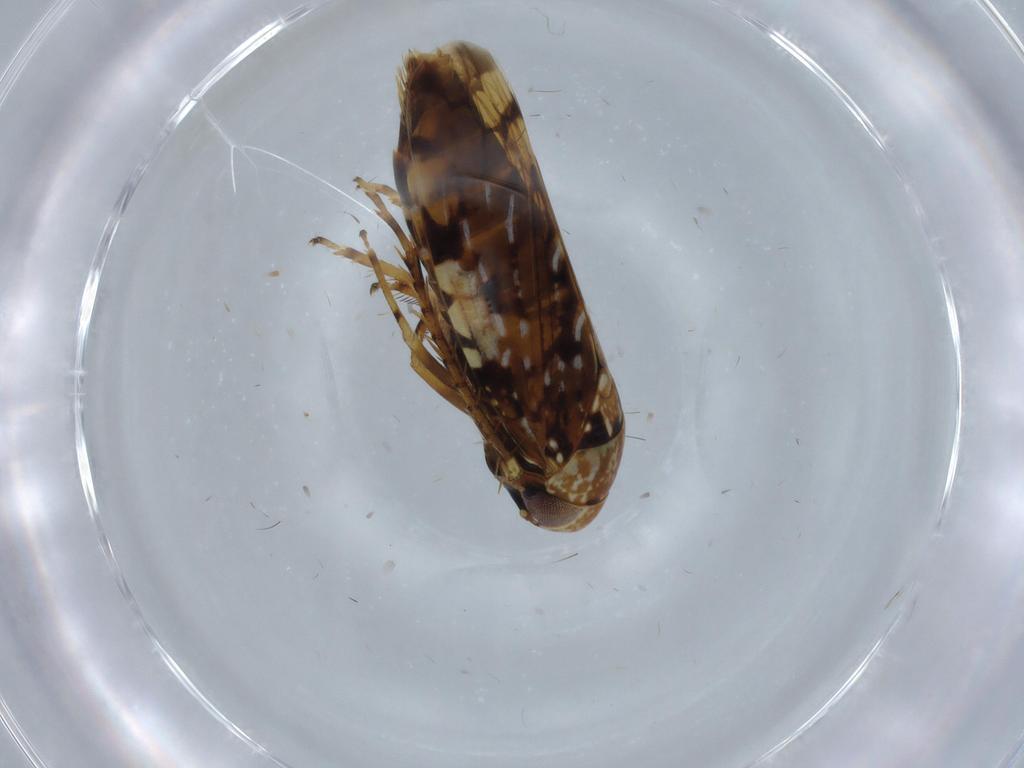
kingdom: Animalia
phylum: Arthropoda
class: Insecta
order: Hemiptera
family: Cicadellidae
